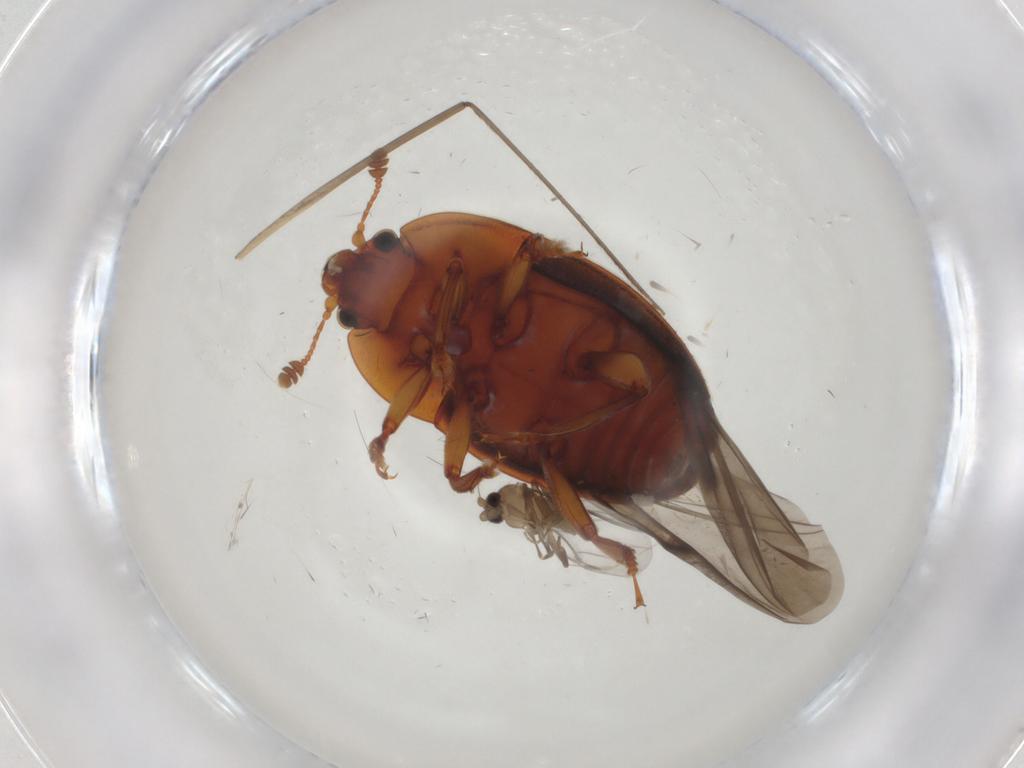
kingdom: Animalia
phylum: Arthropoda
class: Insecta
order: Diptera
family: Limoniidae
